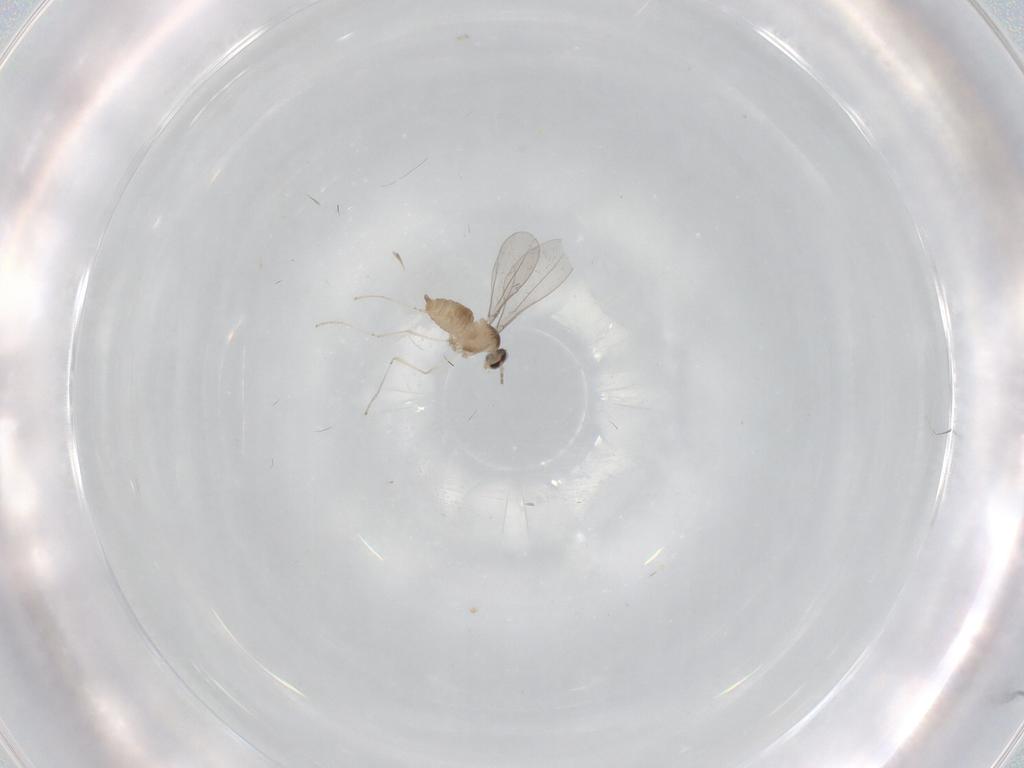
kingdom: Animalia
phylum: Arthropoda
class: Insecta
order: Diptera
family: Cecidomyiidae
